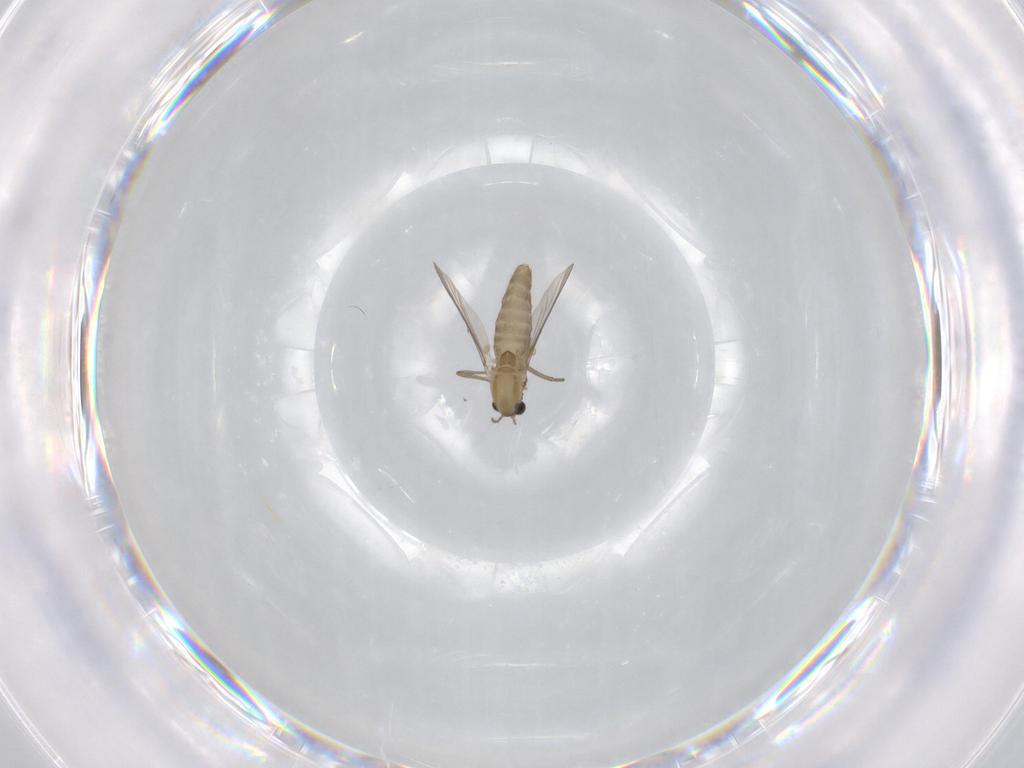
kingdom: Animalia
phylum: Arthropoda
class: Insecta
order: Diptera
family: Chironomidae
